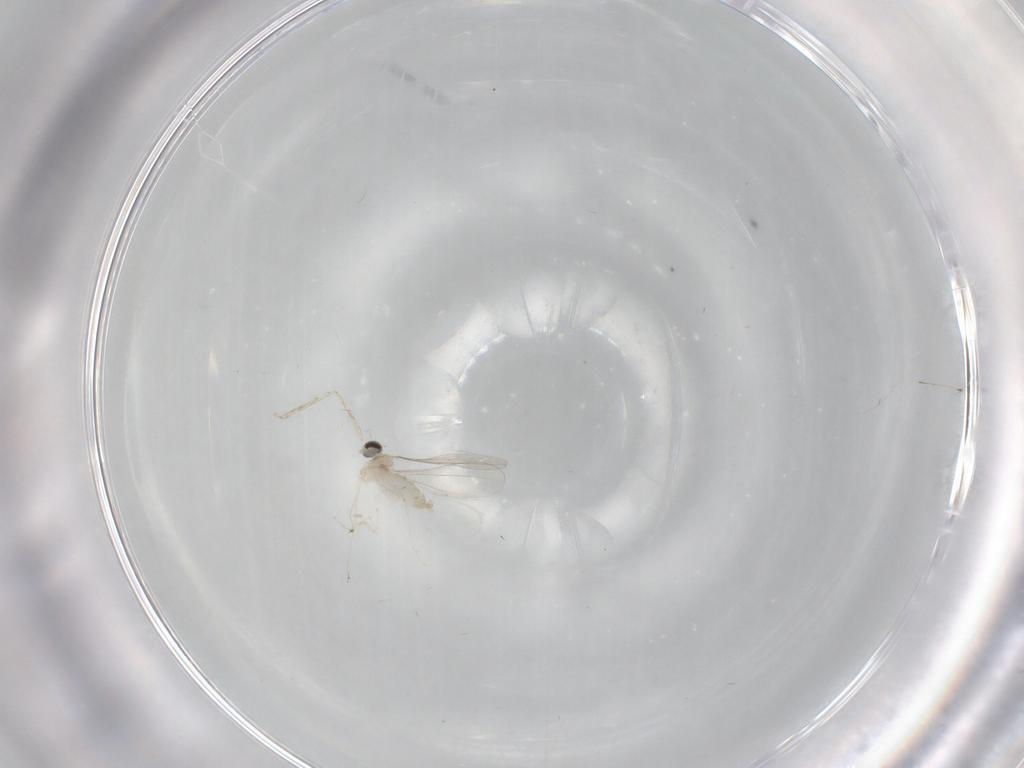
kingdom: Animalia
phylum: Arthropoda
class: Insecta
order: Diptera
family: Cecidomyiidae
